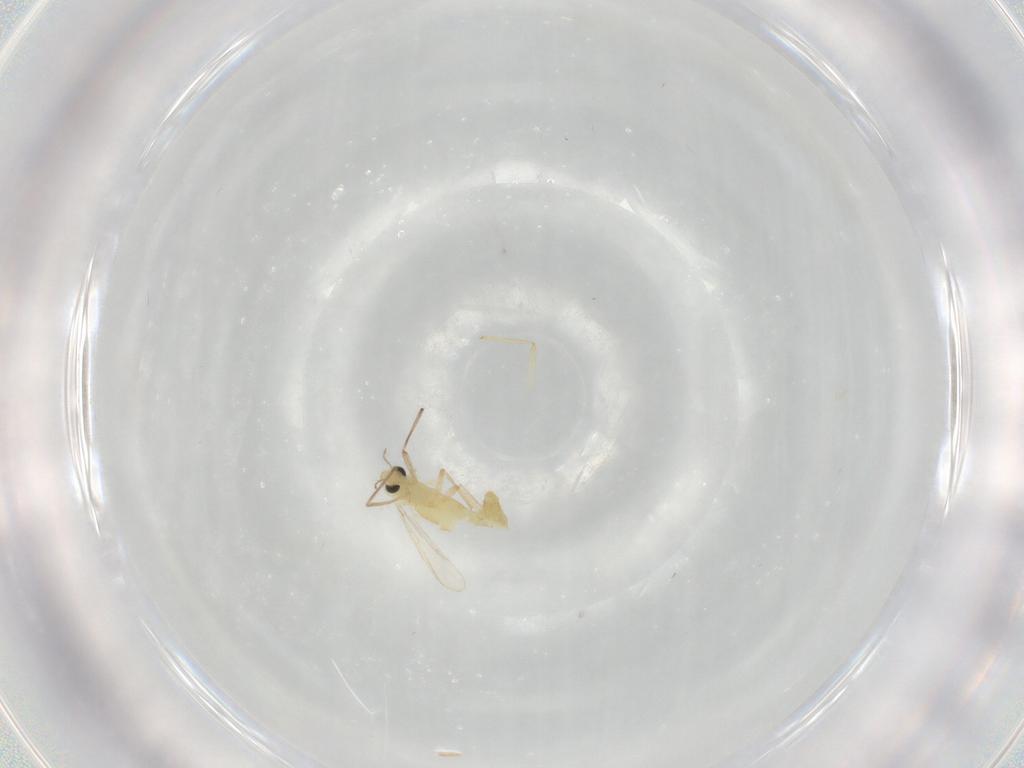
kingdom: Animalia
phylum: Arthropoda
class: Insecta
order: Diptera
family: Chironomidae
